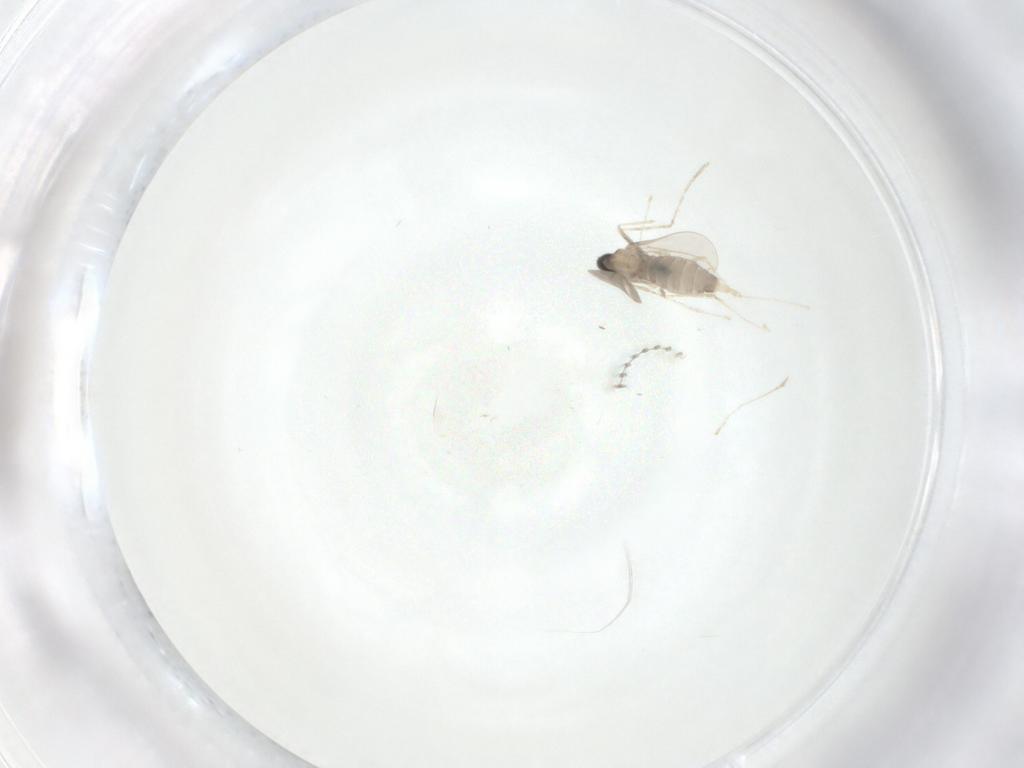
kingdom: Animalia
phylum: Arthropoda
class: Insecta
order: Diptera
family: Cecidomyiidae
